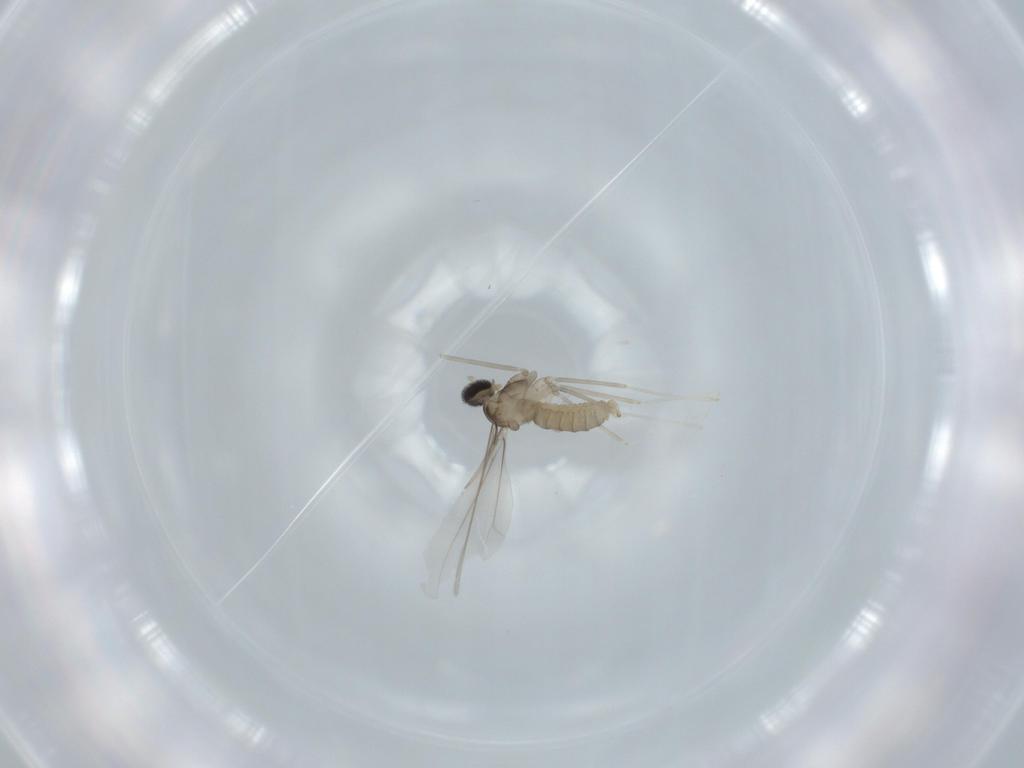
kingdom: Animalia
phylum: Arthropoda
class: Insecta
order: Diptera
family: Cecidomyiidae
